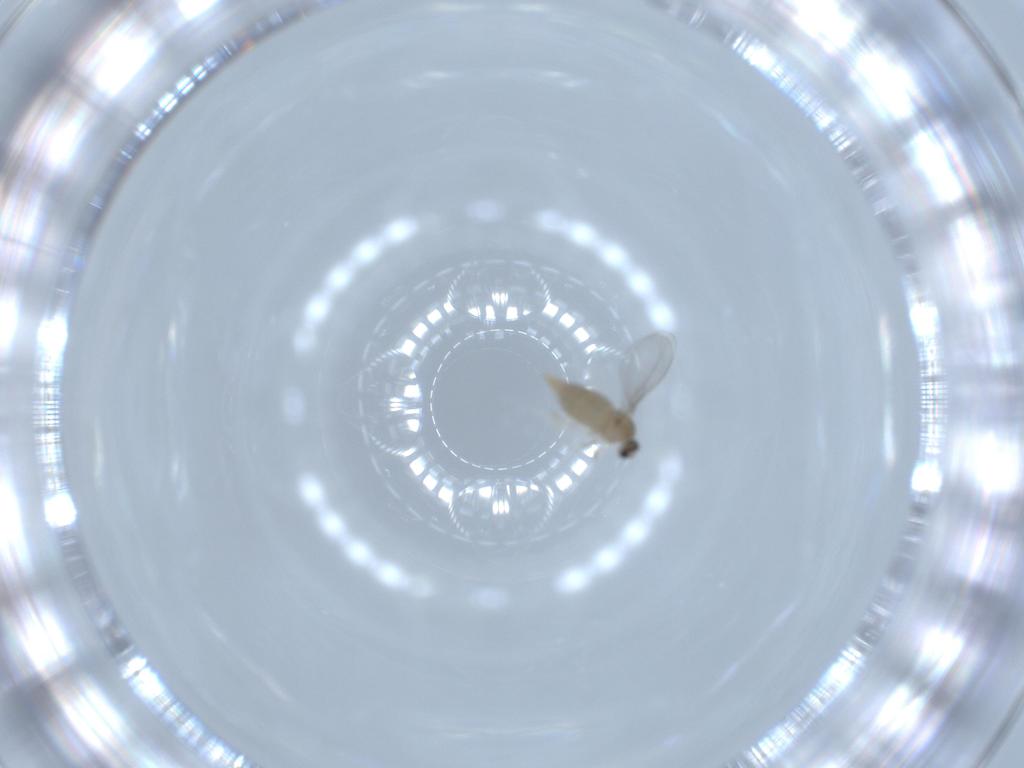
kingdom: Animalia
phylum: Arthropoda
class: Insecta
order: Diptera
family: Cecidomyiidae
